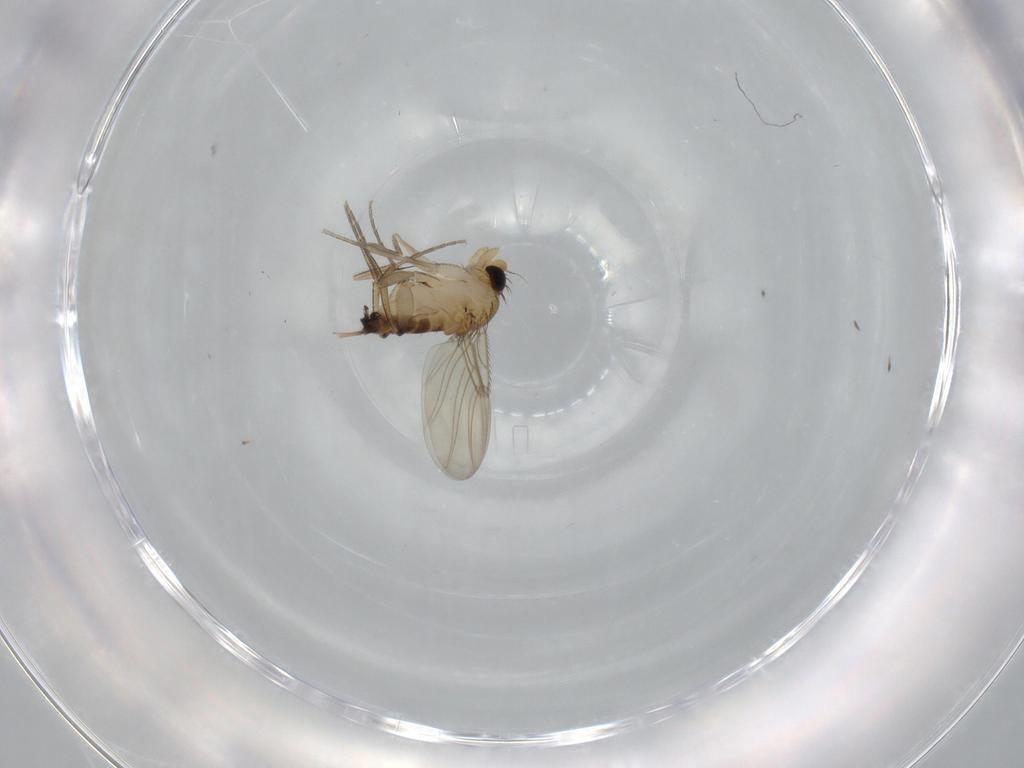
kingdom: Animalia
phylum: Arthropoda
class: Insecta
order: Diptera
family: Phoridae
